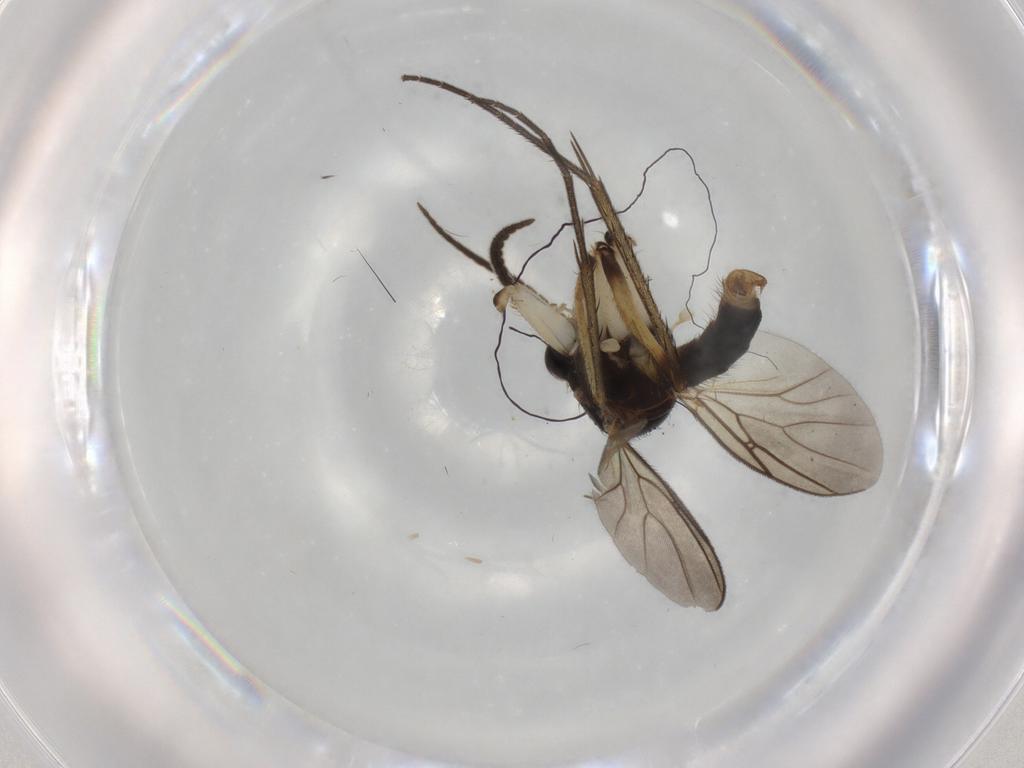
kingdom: Animalia
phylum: Arthropoda
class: Insecta
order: Diptera
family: Mycetophilidae
